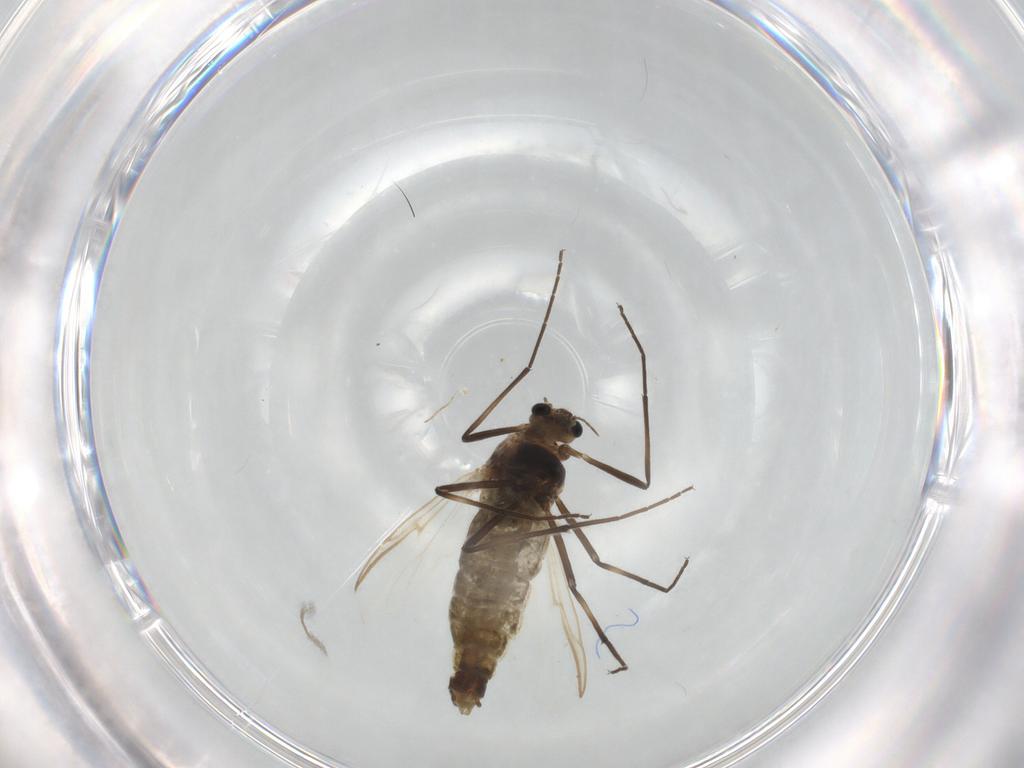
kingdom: Animalia
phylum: Arthropoda
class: Insecta
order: Diptera
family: Chironomidae
